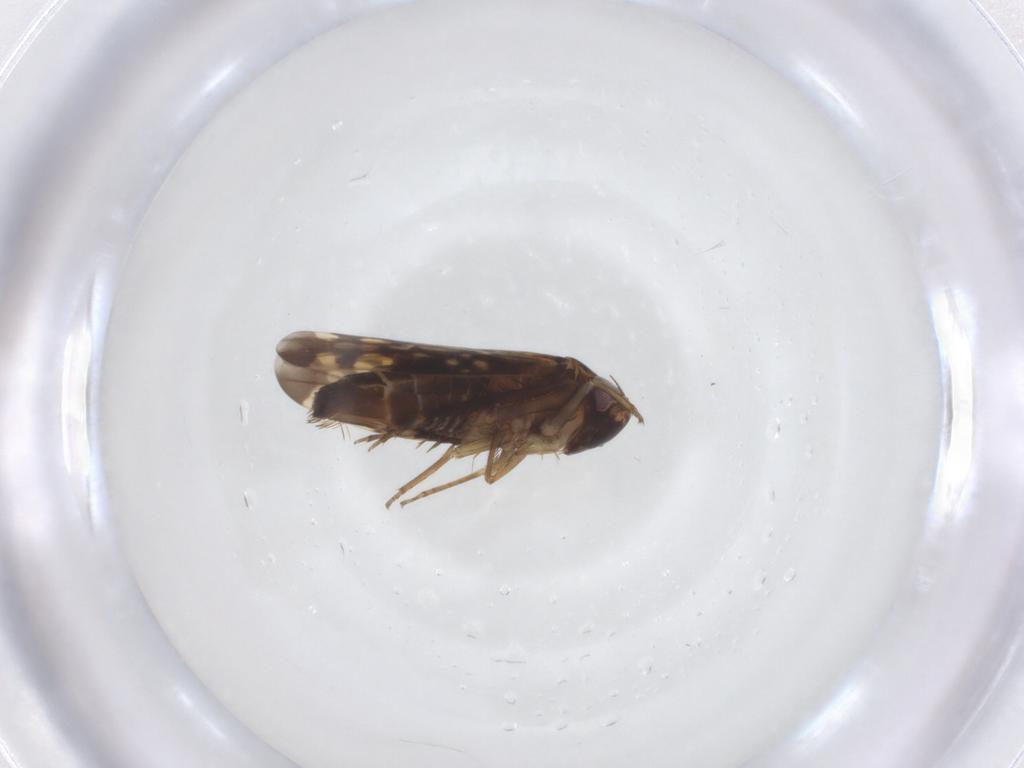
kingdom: Animalia
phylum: Arthropoda
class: Insecta
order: Hemiptera
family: Cicadellidae
